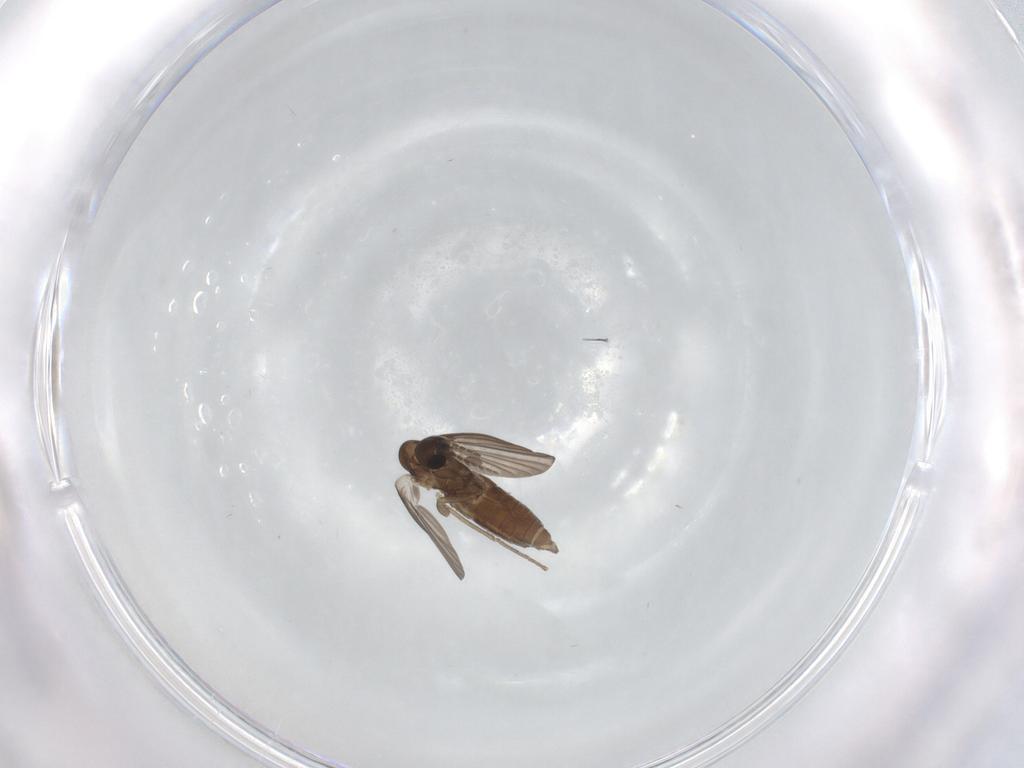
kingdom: Animalia
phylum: Arthropoda
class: Insecta
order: Diptera
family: Cecidomyiidae
